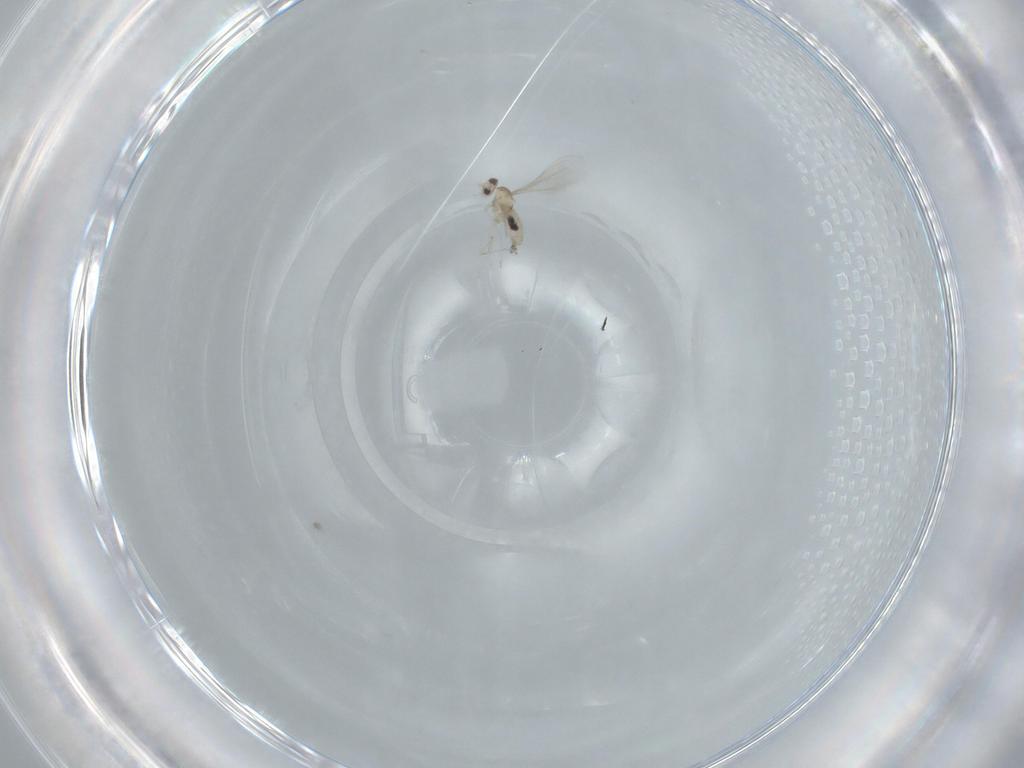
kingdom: Animalia
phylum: Arthropoda
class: Insecta
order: Diptera
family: Cecidomyiidae
